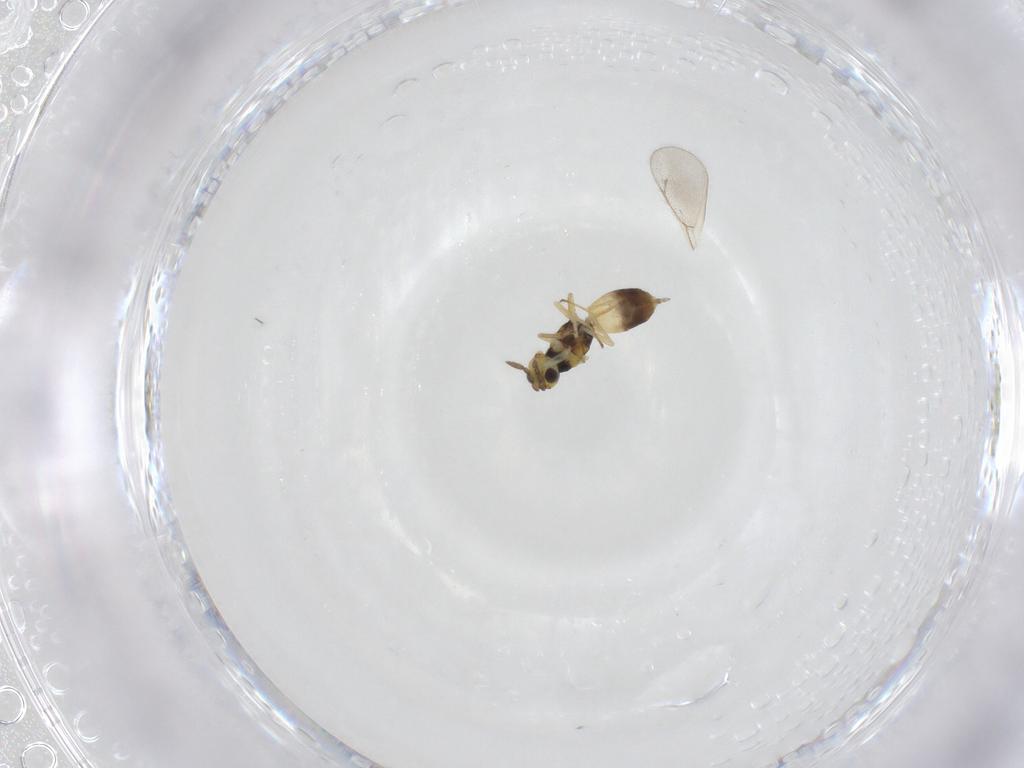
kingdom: Animalia
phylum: Arthropoda
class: Insecta
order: Hymenoptera
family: Eulophidae
